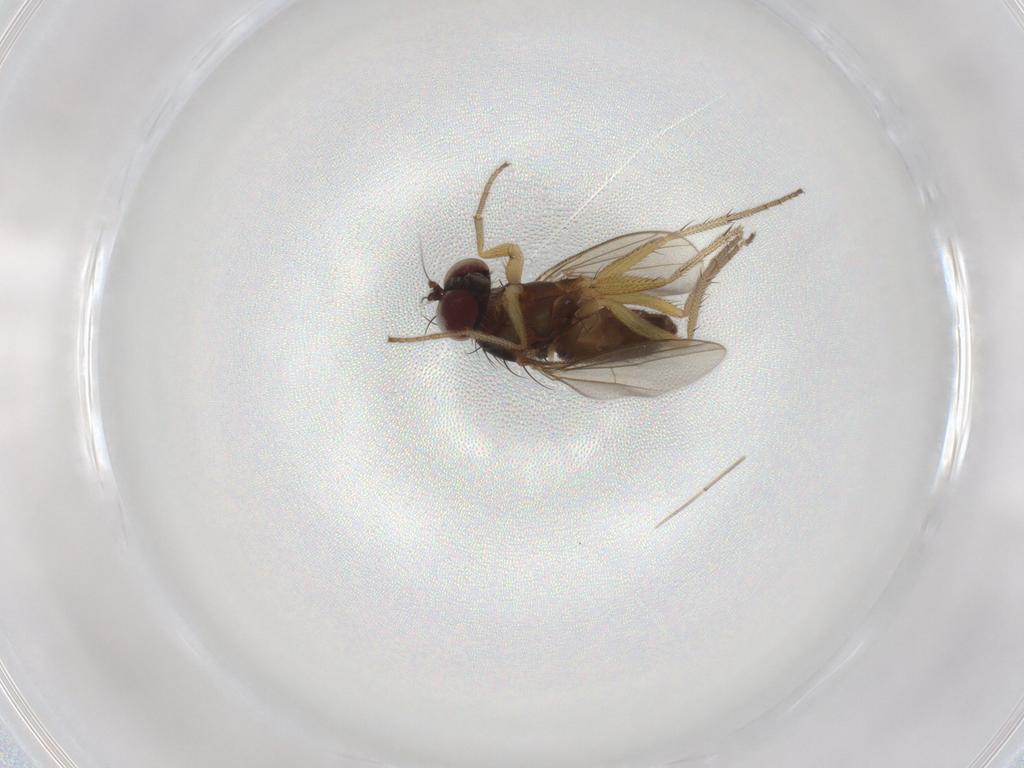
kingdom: Animalia
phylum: Arthropoda
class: Insecta
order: Diptera
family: Dolichopodidae
